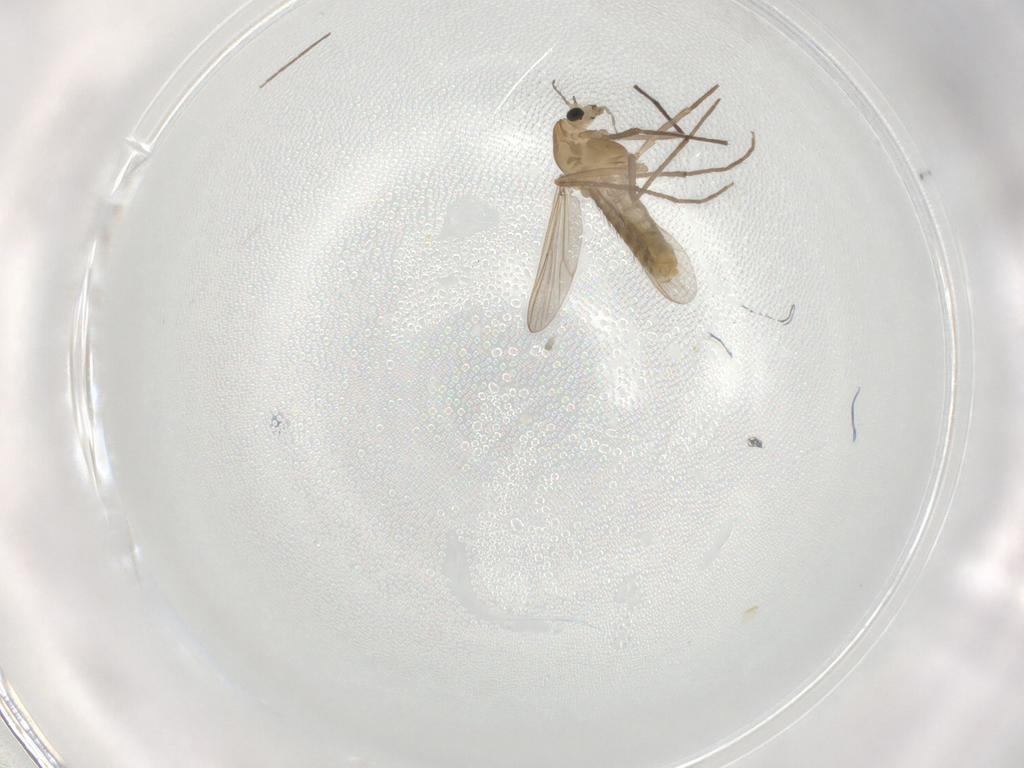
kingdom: Animalia
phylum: Arthropoda
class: Insecta
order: Diptera
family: Chironomidae
